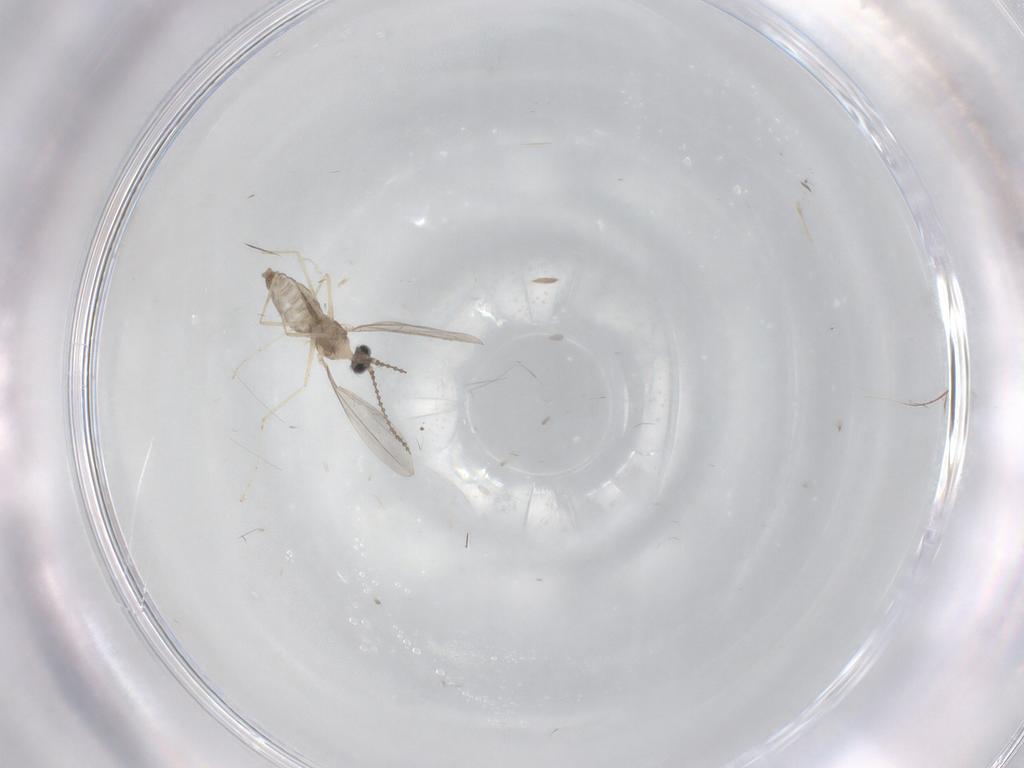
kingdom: Animalia
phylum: Arthropoda
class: Insecta
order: Diptera
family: Cecidomyiidae
